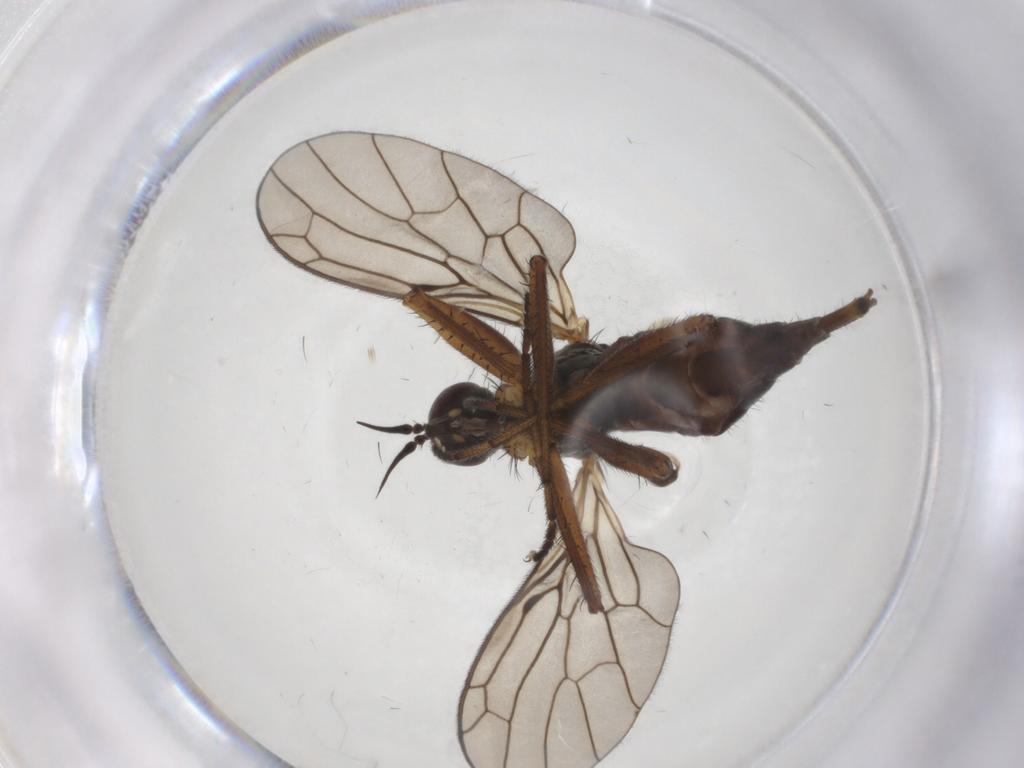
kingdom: Animalia
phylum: Arthropoda
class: Insecta
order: Diptera
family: Chironomidae
